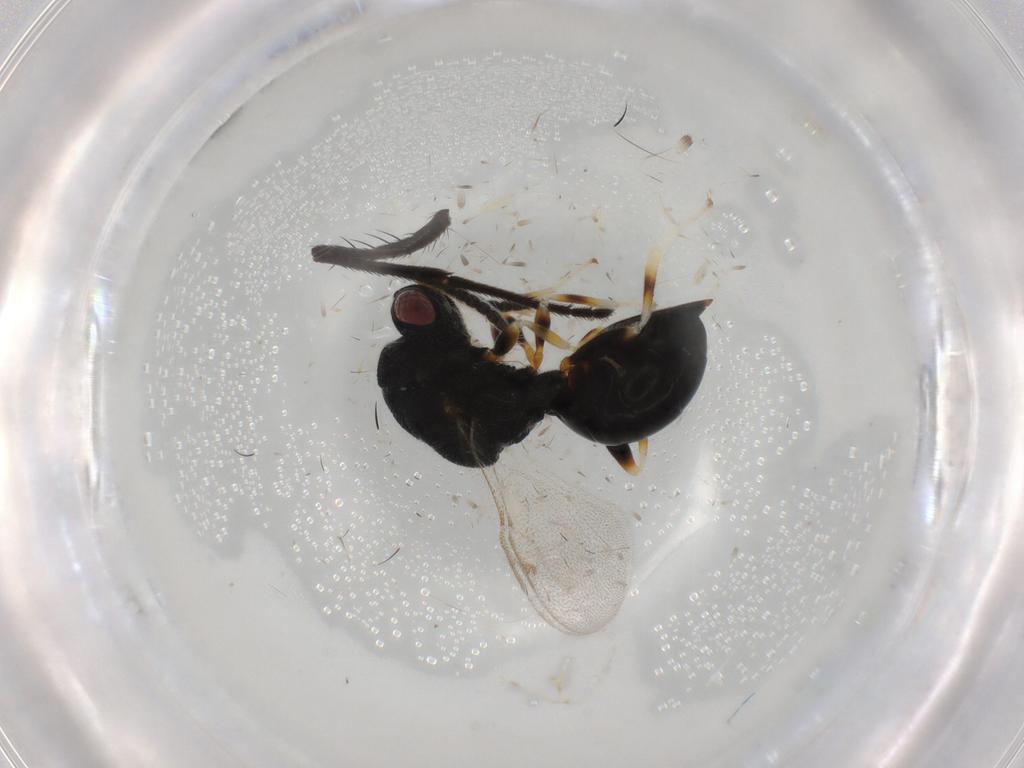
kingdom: Animalia
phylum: Arthropoda
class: Insecta
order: Hymenoptera
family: Eurytomidae
